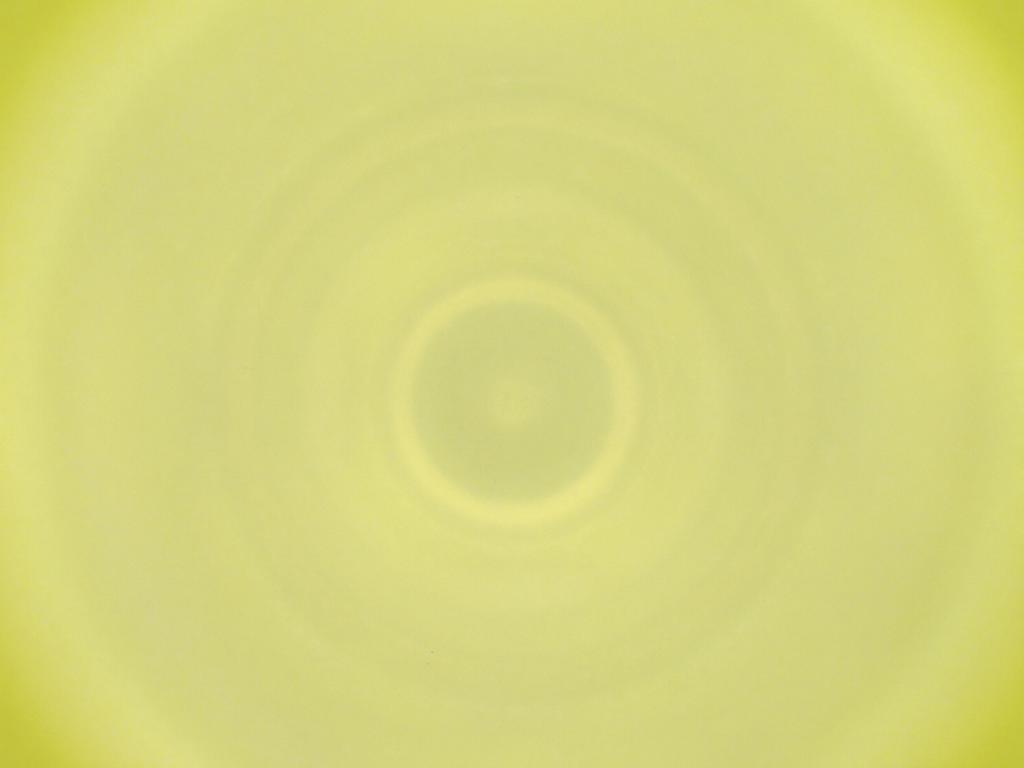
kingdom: Animalia
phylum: Arthropoda
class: Insecta
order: Diptera
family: Cecidomyiidae
